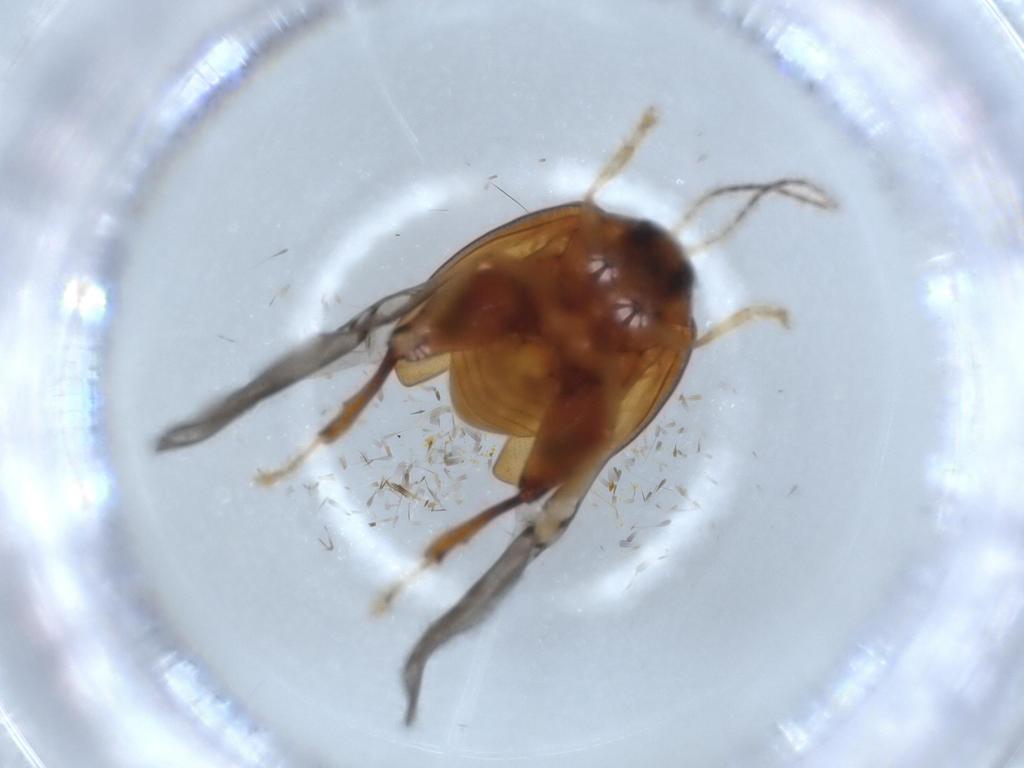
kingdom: Animalia
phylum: Arthropoda
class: Insecta
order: Coleoptera
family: Chrysomelidae
